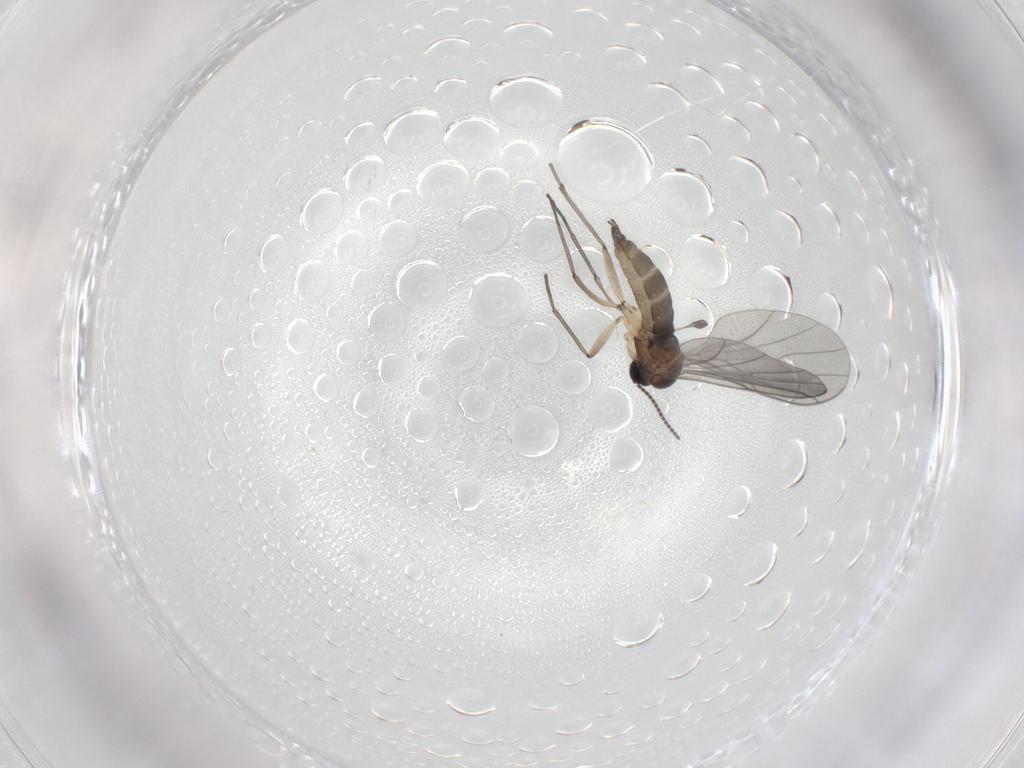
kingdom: Animalia
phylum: Arthropoda
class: Insecta
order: Diptera
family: Sciaridae
